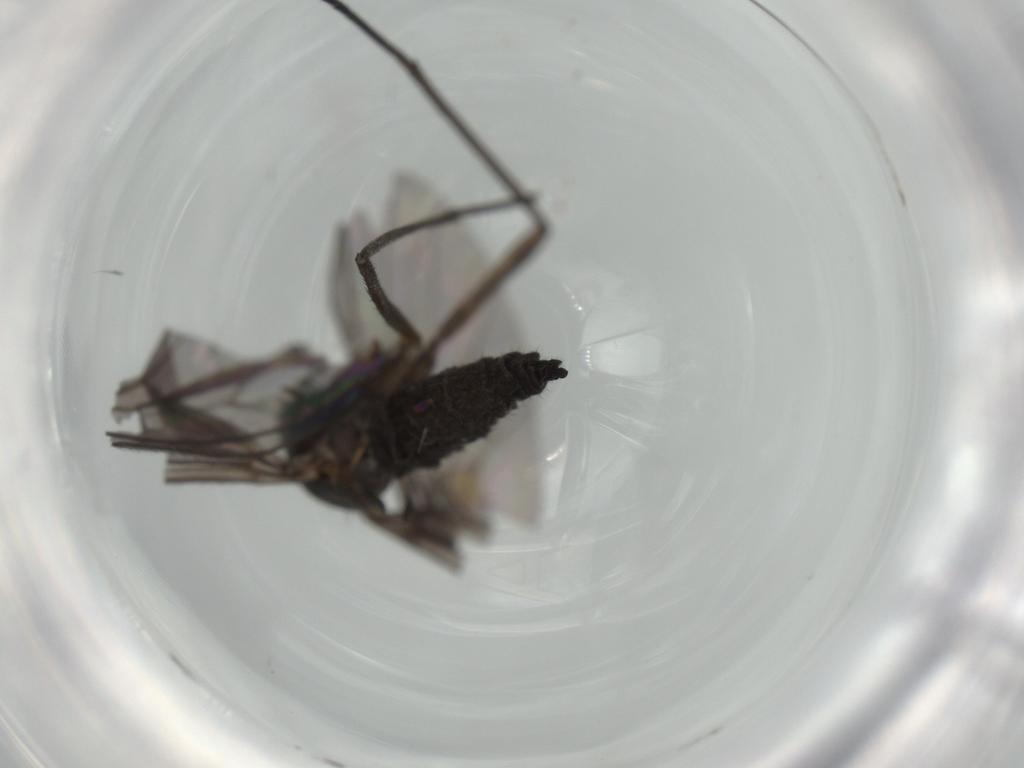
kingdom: Animalia
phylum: Arthropoda
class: Insecta
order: Diptera
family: Sciaridae
